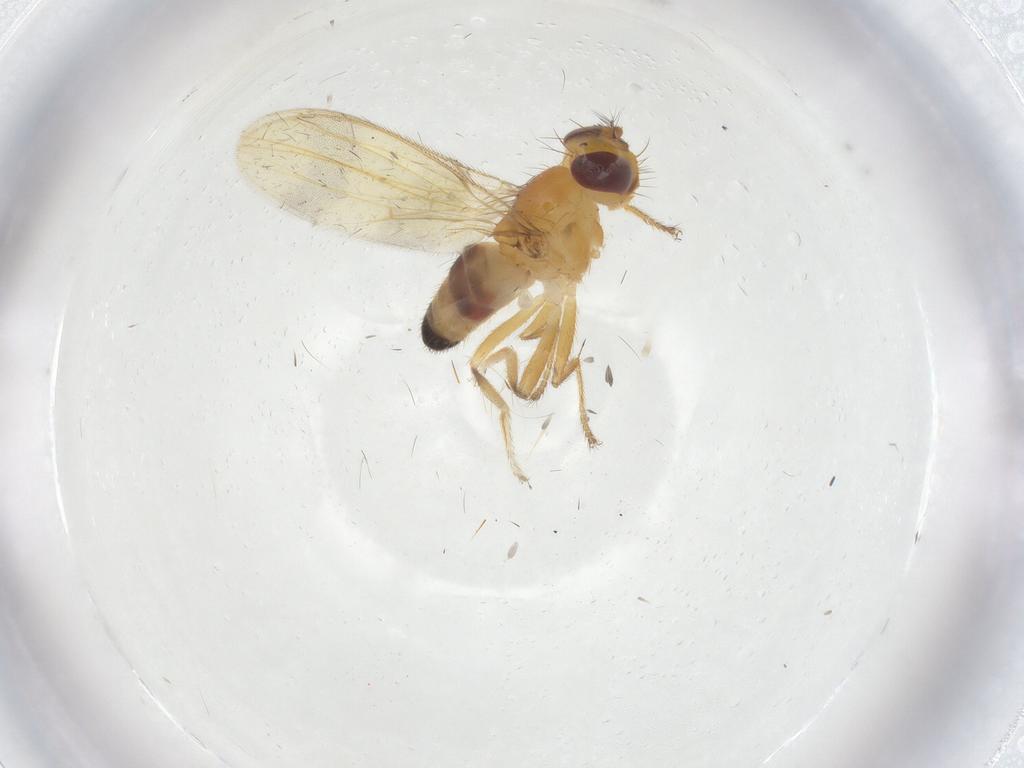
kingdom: Animalia
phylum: Arthropoda
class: Insecta
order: Diptera
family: Periscelididae
